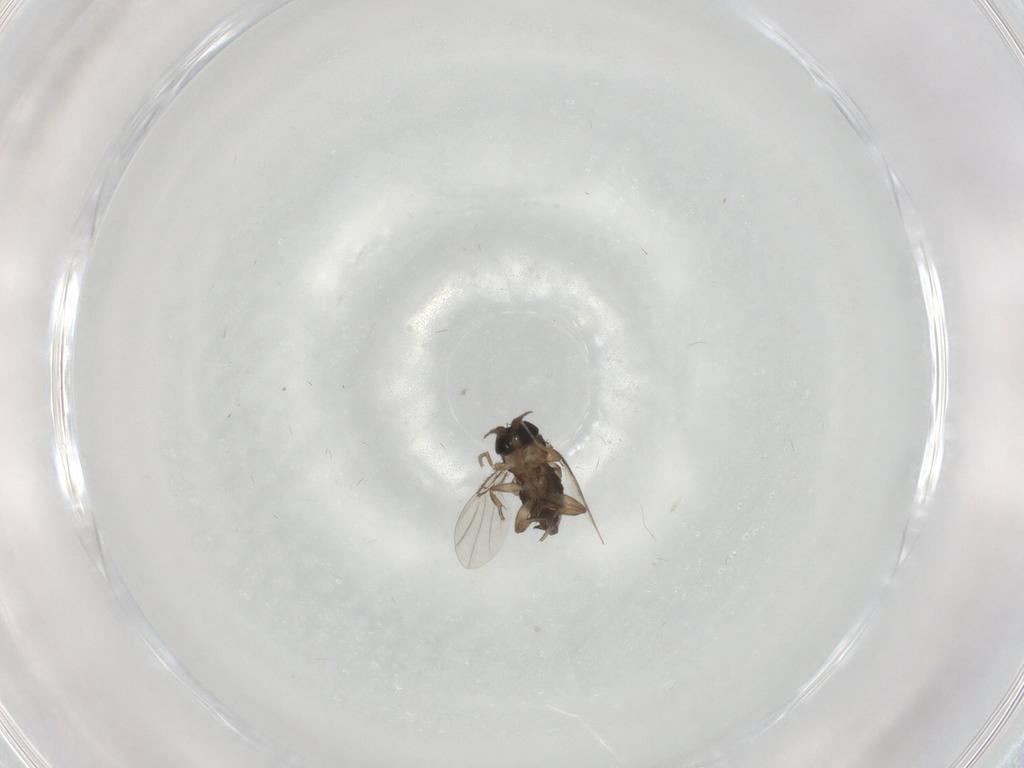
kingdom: Animalia
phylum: Arthropoda
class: Insecta
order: Diptera
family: Phoridae
